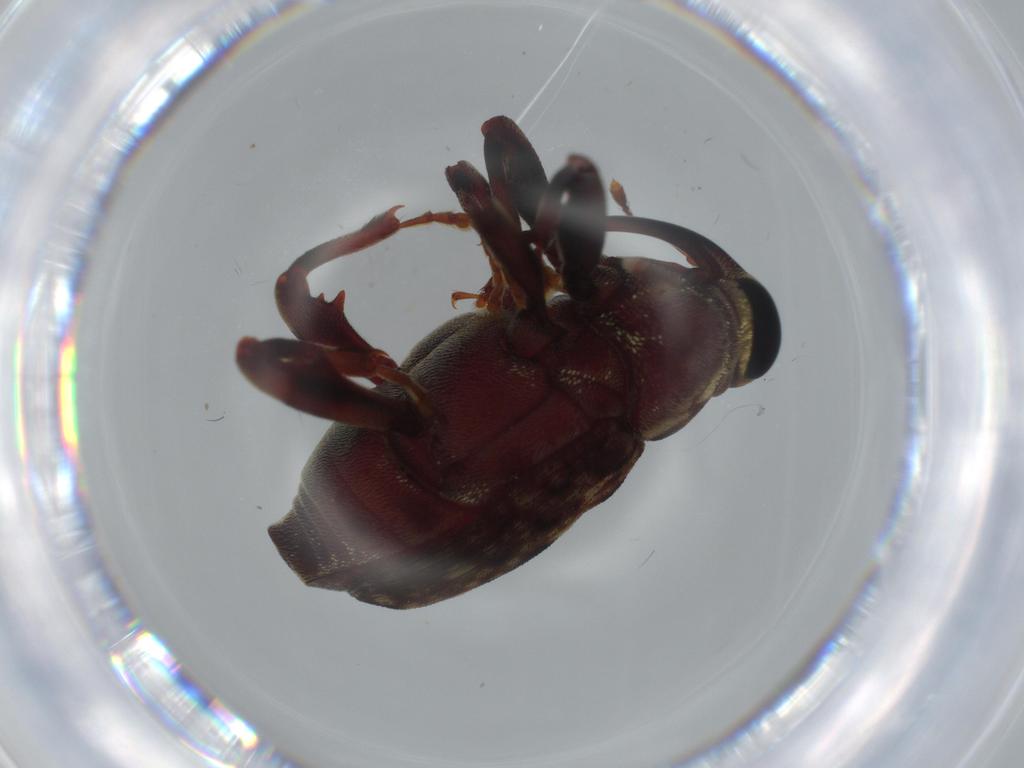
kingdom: Animalia
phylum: Arthropoda
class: Insecta
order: Coleoptera
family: Curculionidae
